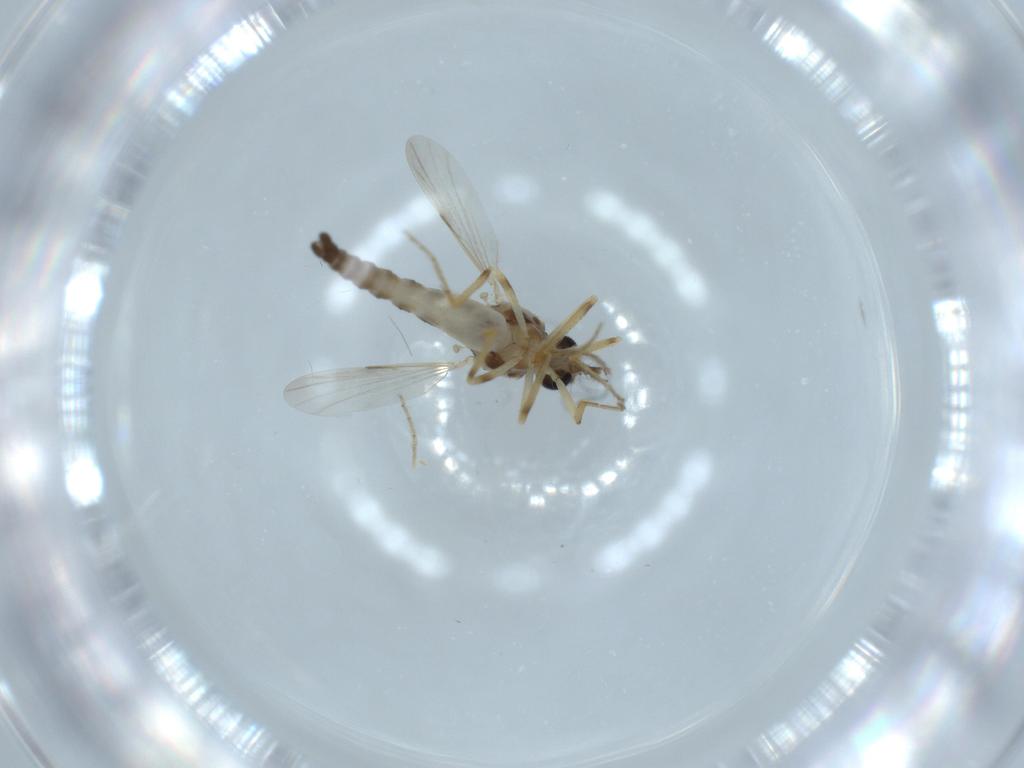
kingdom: Animalia
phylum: Arthropoda
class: Insecta
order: Diptera
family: Ceratopogonidae
